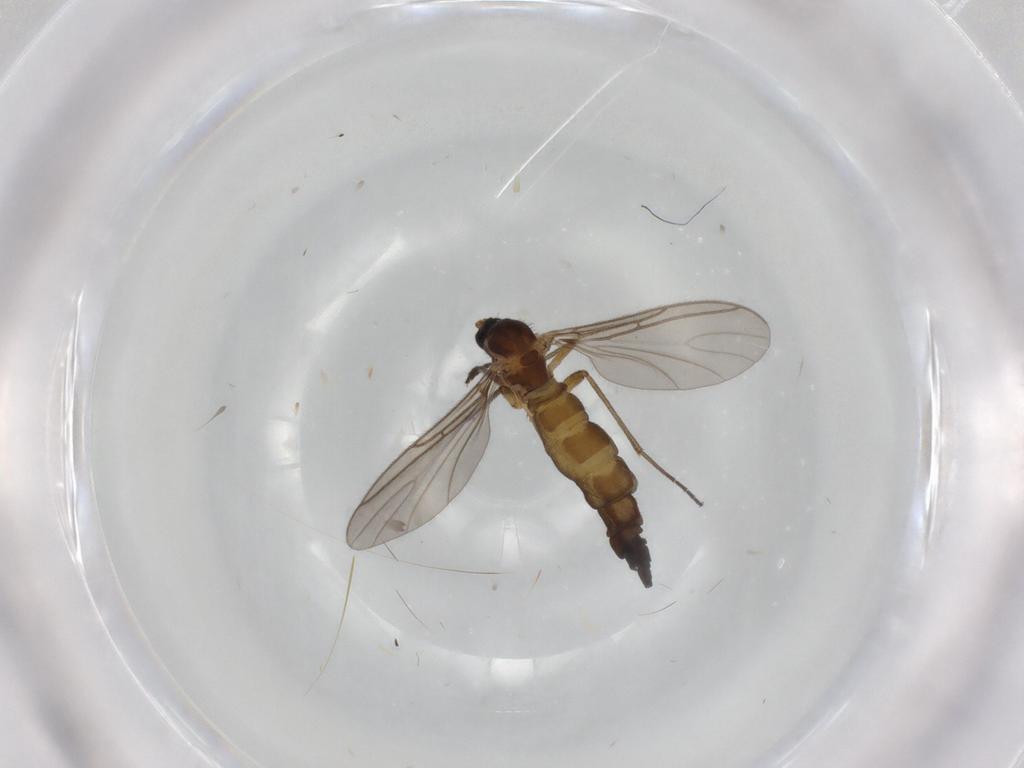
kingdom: Animalia
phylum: Arthropoda
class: Insecta
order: Diptera
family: Sciaridae
